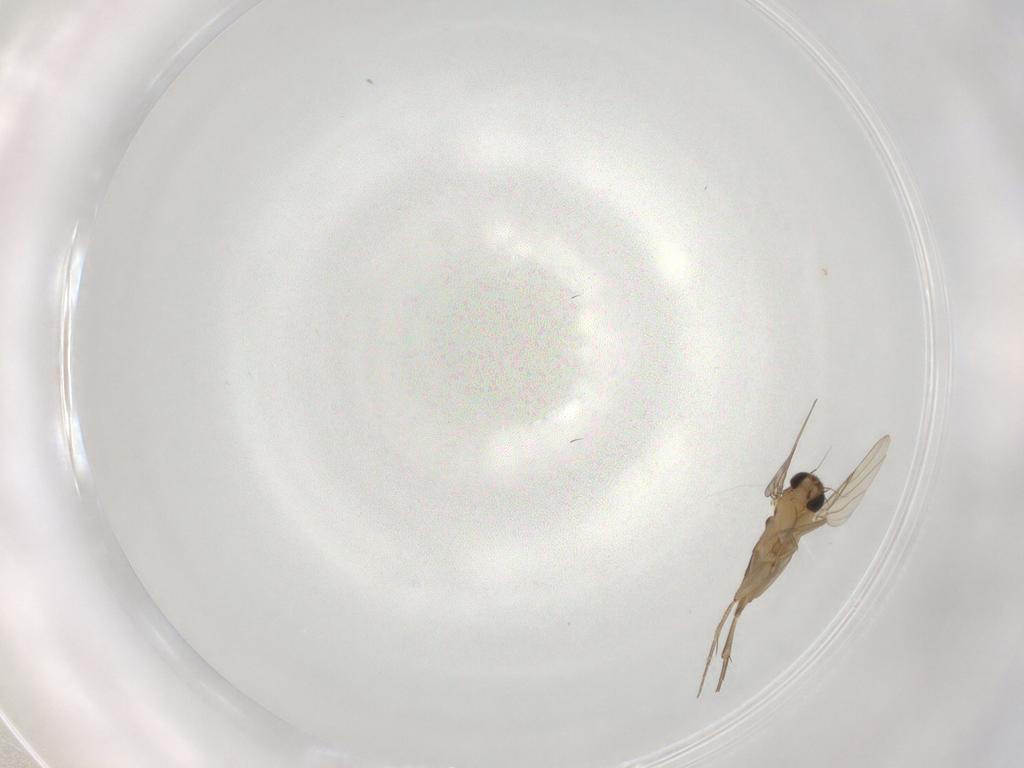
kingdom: Animalia
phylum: Arthropoda
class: Insecta
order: Diptera
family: Phoridae
